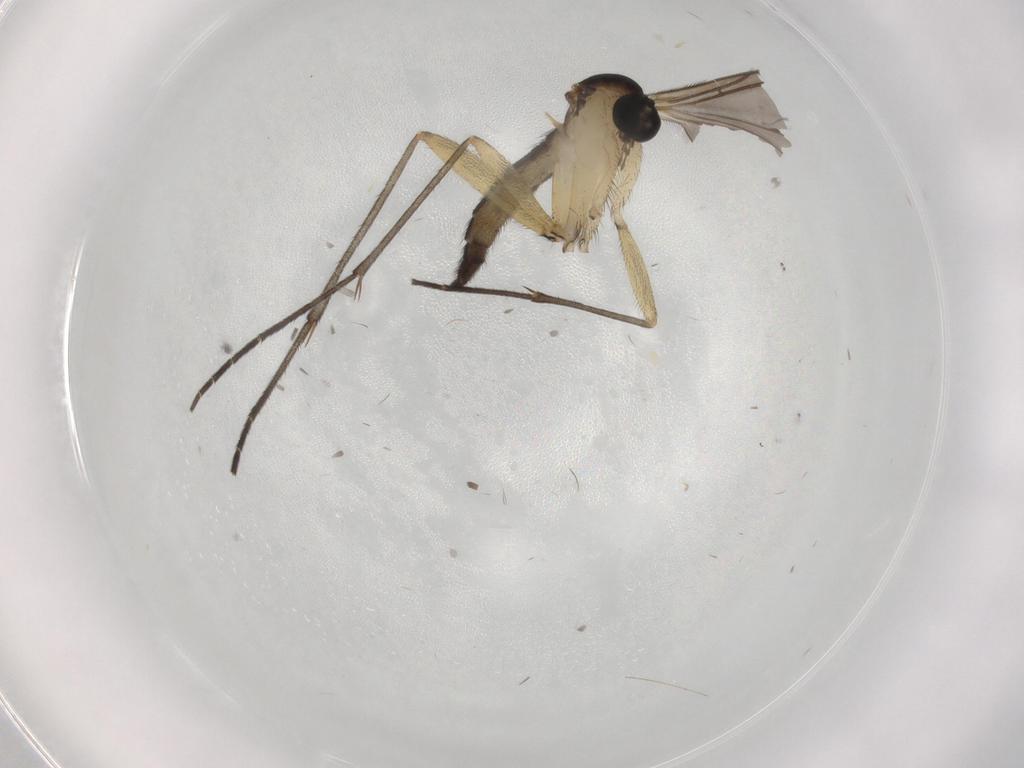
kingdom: Animalia
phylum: Arthropoda
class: Insecta
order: Diptera
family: Sciaridae
